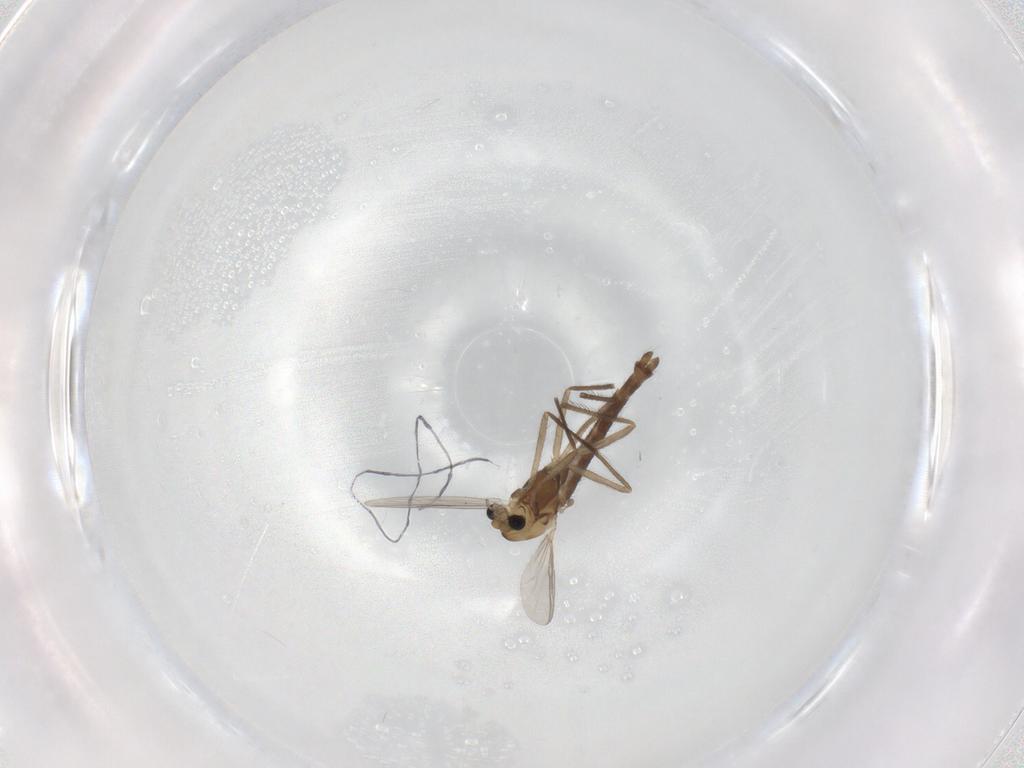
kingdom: Animalia
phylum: Arthropoda
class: Insecta
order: Diptera
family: Chironomidae
